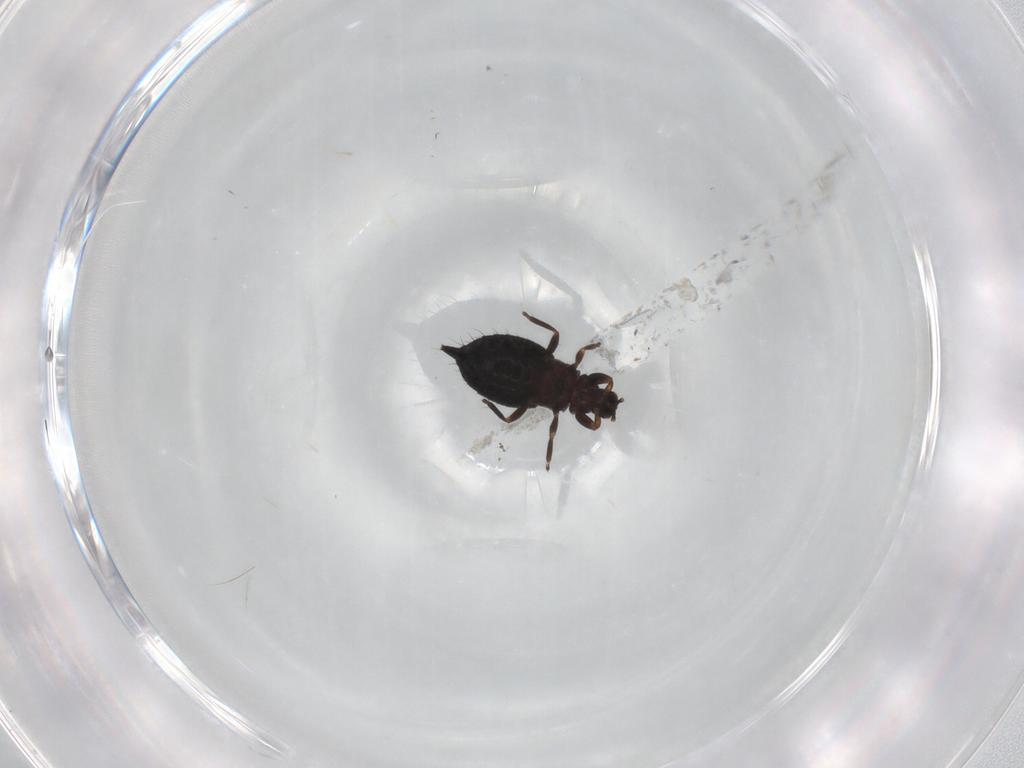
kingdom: Animalia
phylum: Arthropoda
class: Insecta
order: Thysanoptera
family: Phlaeothripidae
